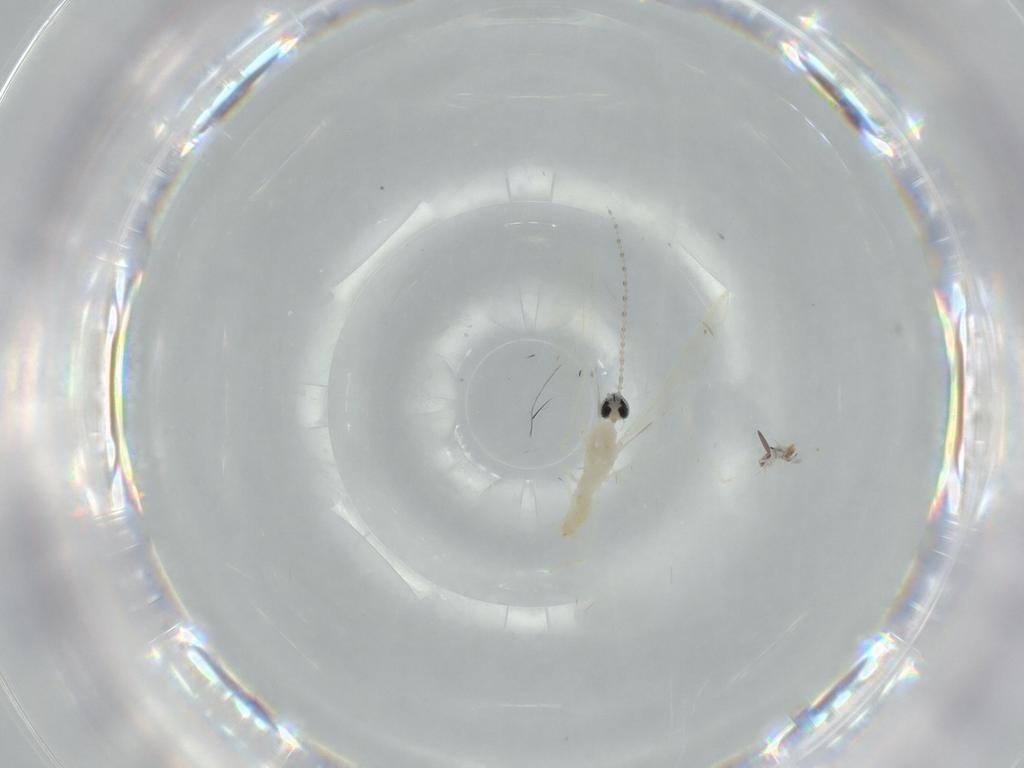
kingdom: Animalia
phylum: Arthropoda
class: Insecta
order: Diptera
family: Cecidomyiidae
